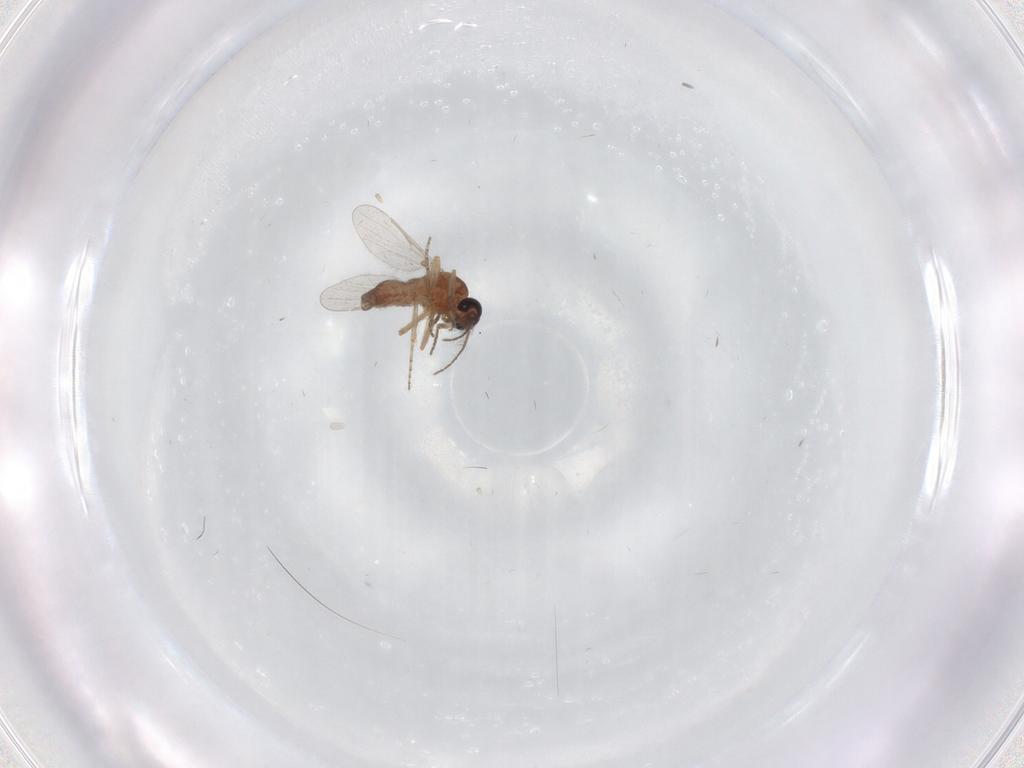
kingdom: Animalia
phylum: Arthropoda
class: Insecta
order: Diptera
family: Ceratopogonidae
